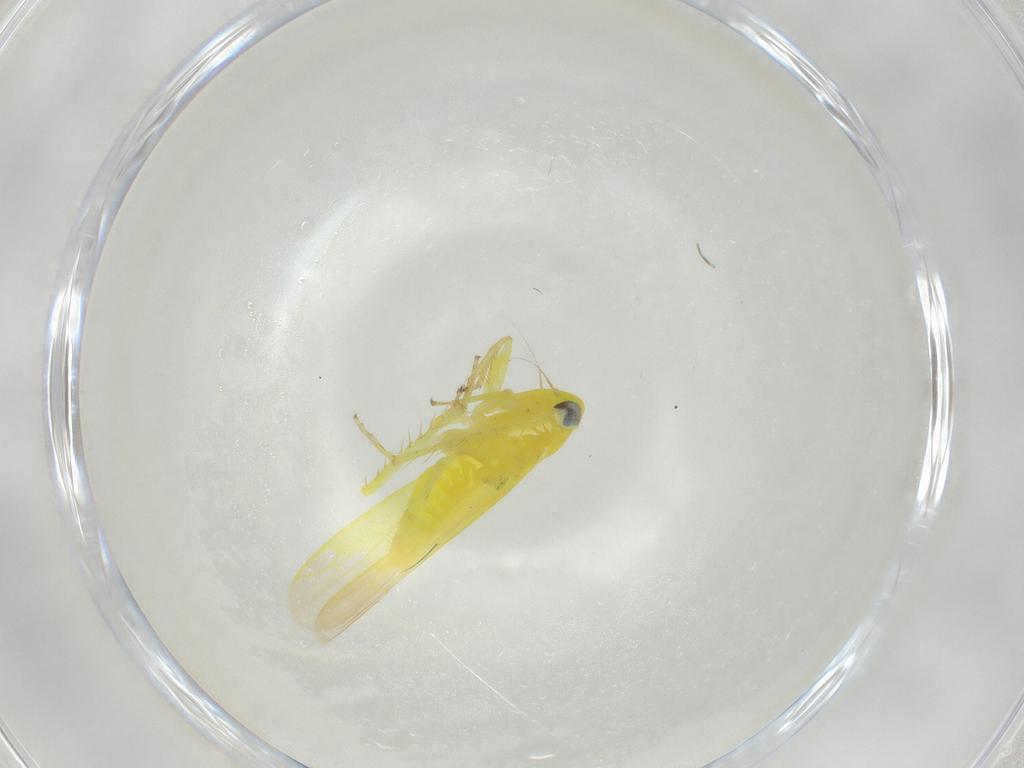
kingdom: Animalia
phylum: Arthropoda
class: Insecta
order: Hemiptera
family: Cicadellidae
